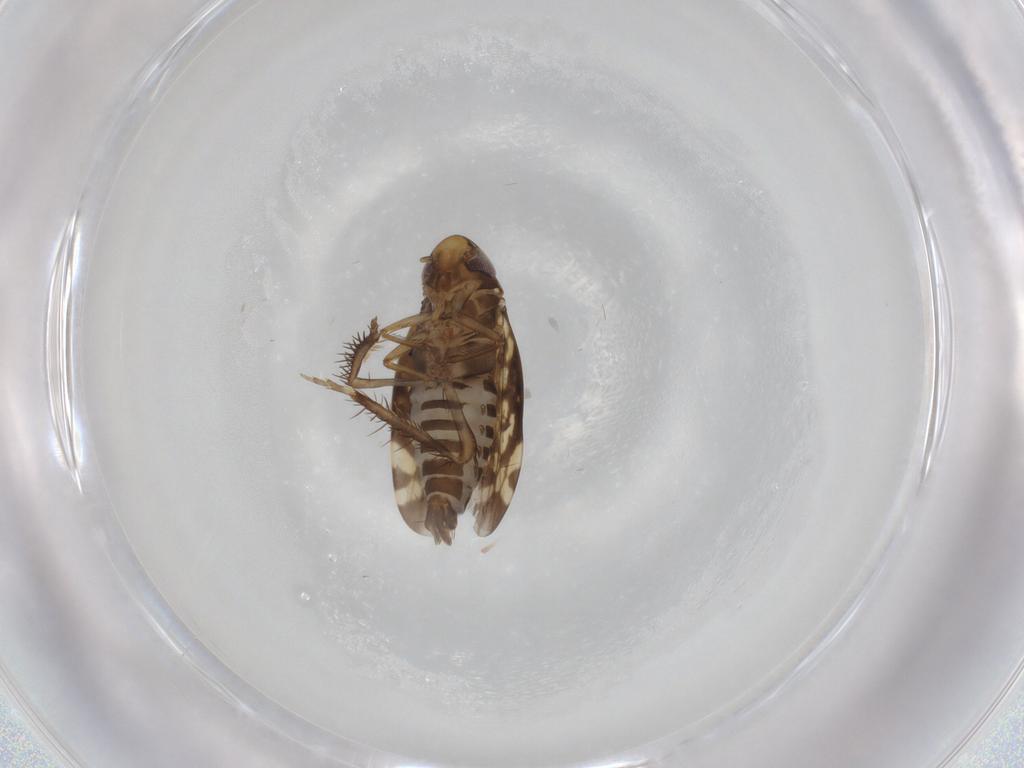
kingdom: Animalia
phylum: Arthropoda
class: Insecta
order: Hemiptera
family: Cicadellidae
